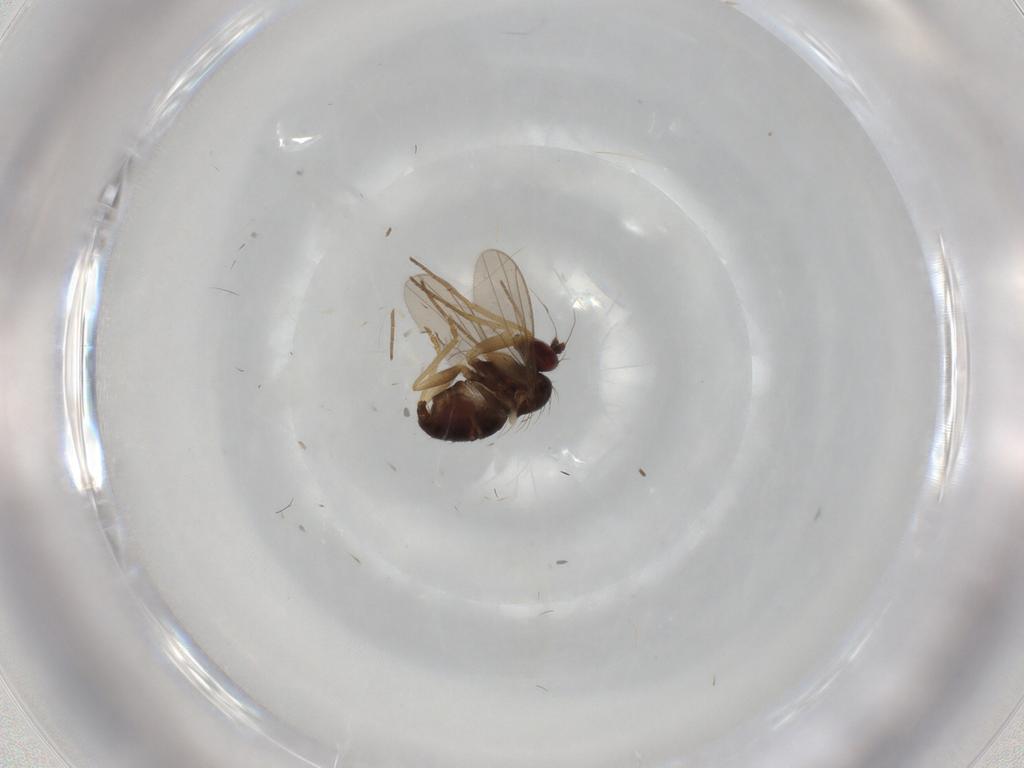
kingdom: Animalia
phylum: Arthropoda
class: Insecta
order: Diptera
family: Dolichopodidae
